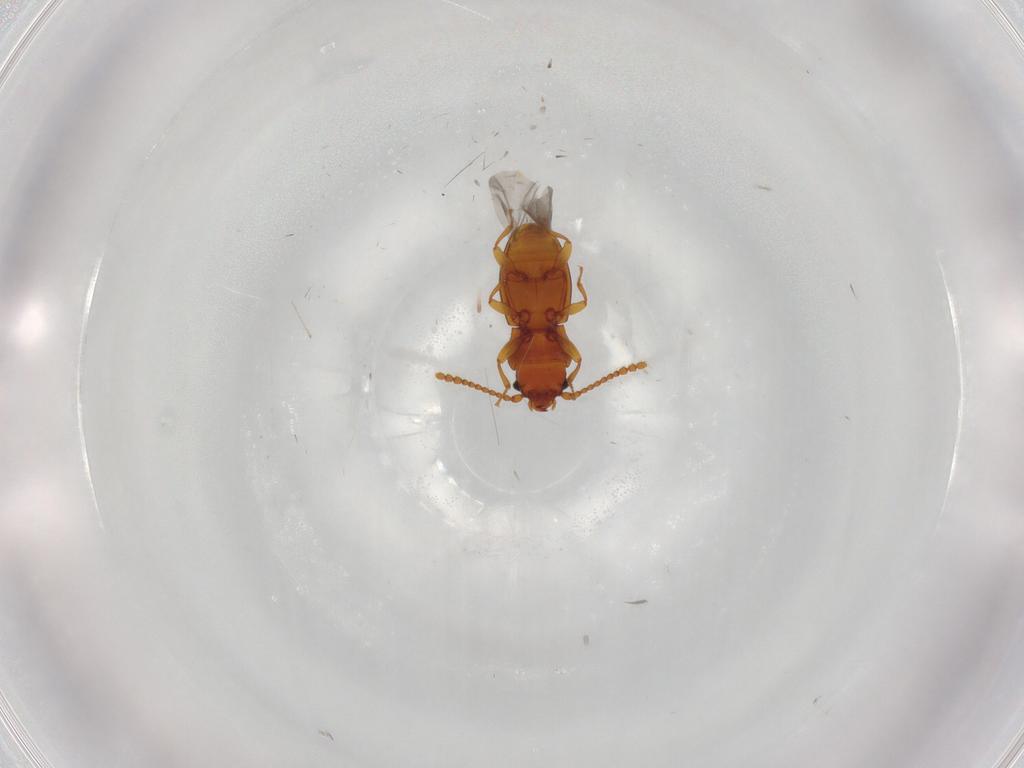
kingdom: Animalia
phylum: Arthropoda
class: Insecta
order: Coleoptera
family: Laemophloeidae
